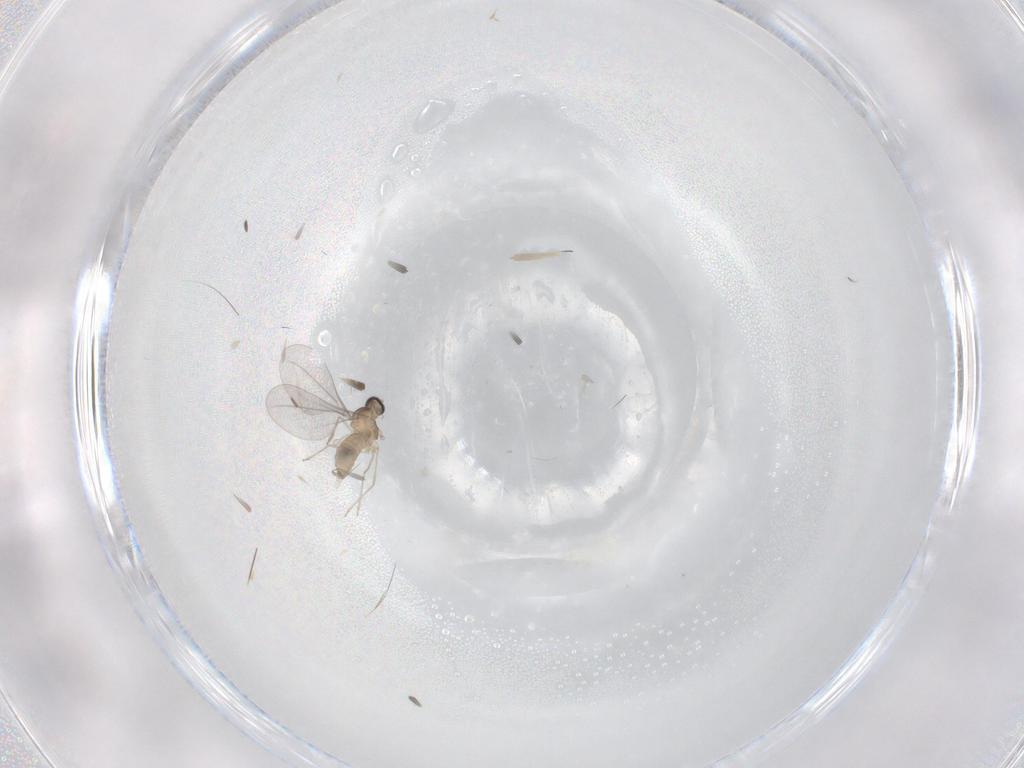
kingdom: Animalia
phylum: Arthropoda
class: Insecta
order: Diptera
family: Cecidomyiidae
